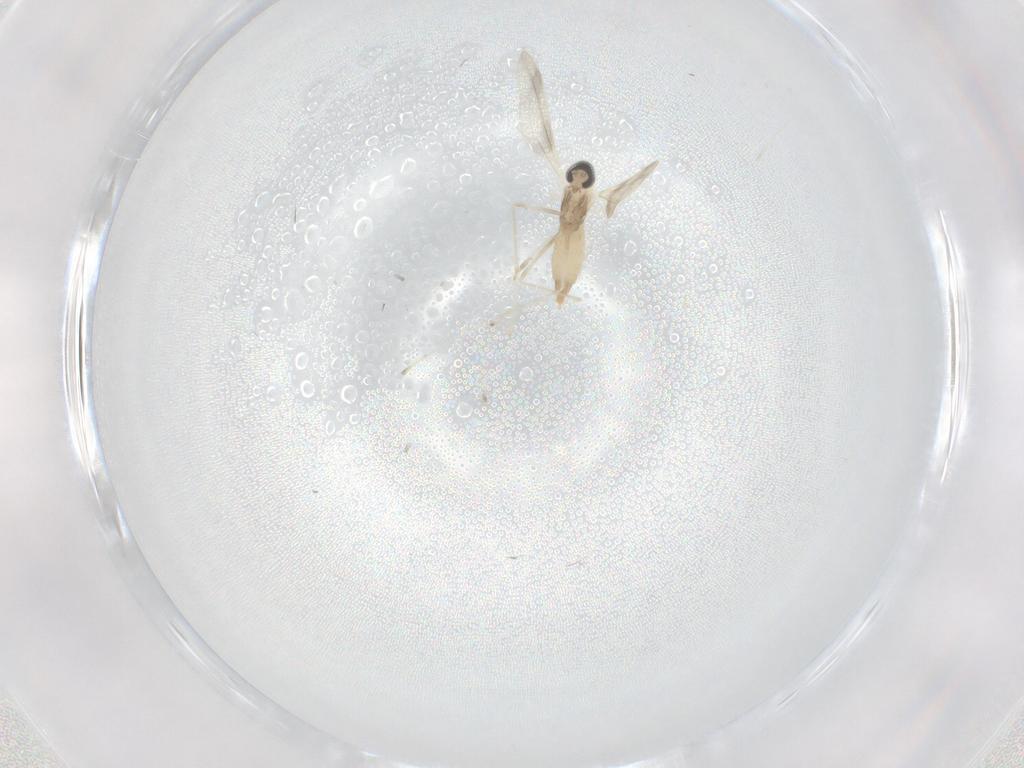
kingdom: Animalia
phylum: Arthropoda
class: Insecta
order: Diptera
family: Cecidomyiidae
